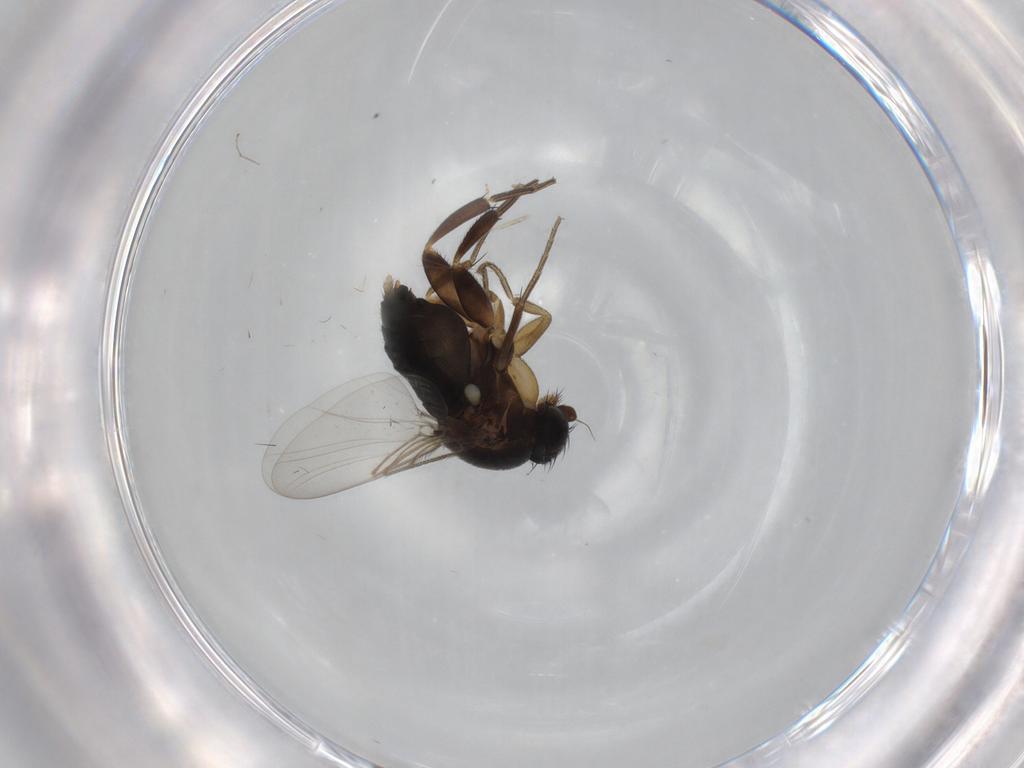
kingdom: Animalia
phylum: Arthropoda
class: Insecta
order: Diptera
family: Phoridae
